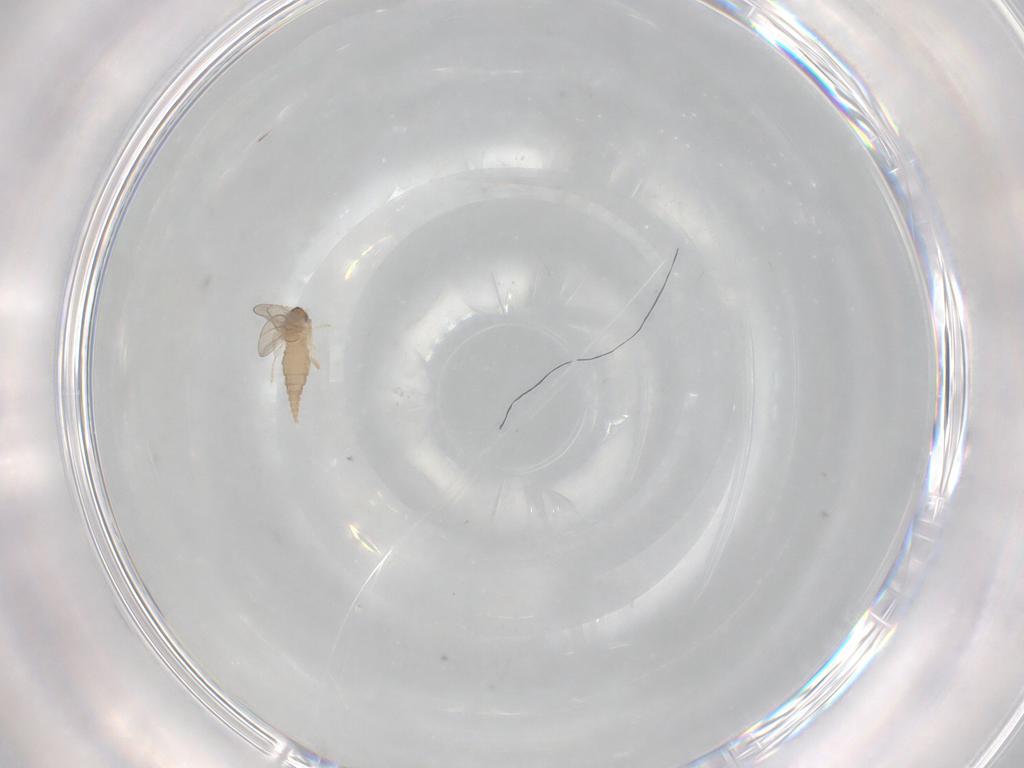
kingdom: Animalia
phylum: Arthropoda
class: Insecta
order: Diptera
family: Cecidomyiidae
